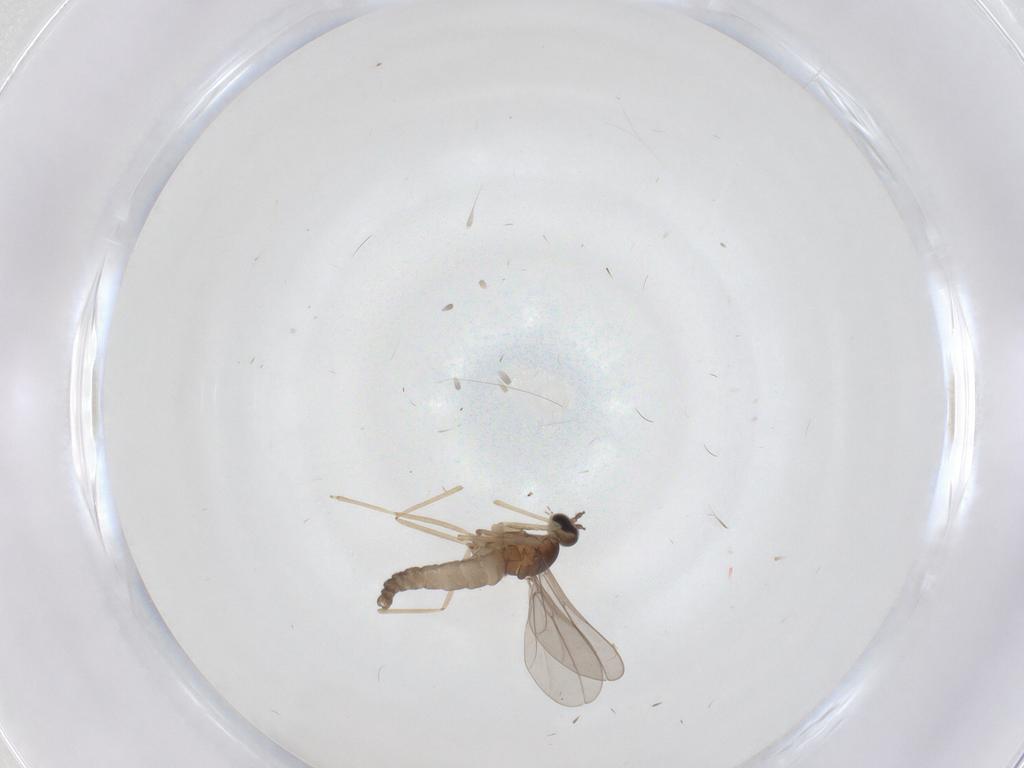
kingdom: Animalia
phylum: Arthropoda
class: Insecta
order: Diptera
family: Cecidomyiidae
